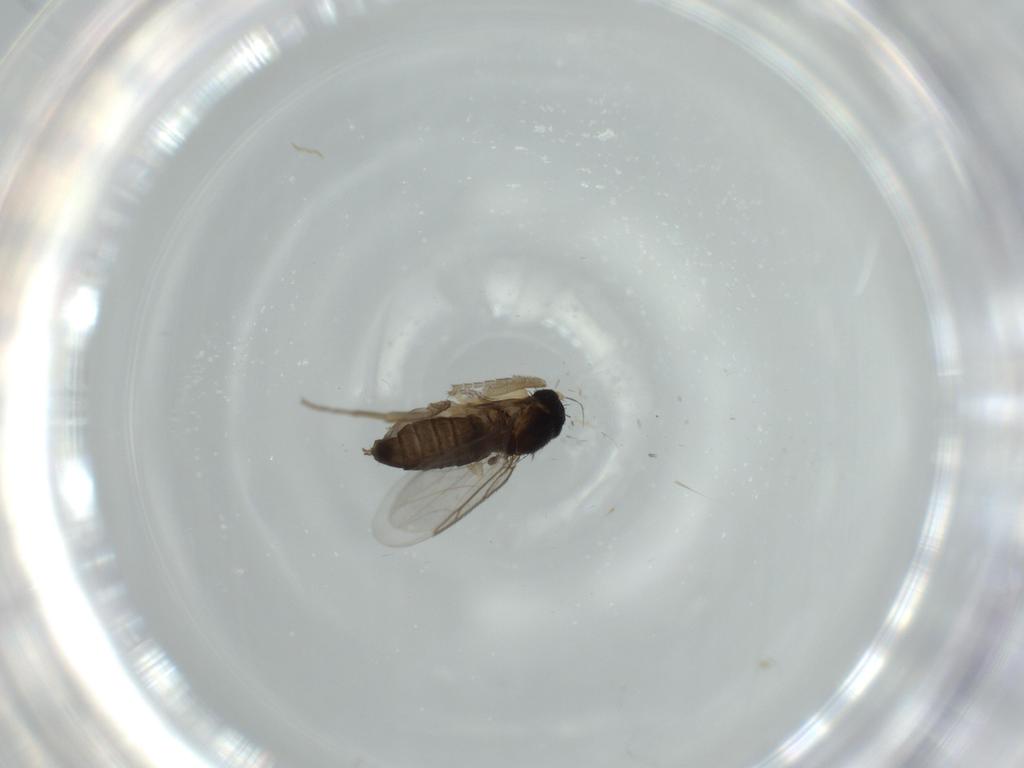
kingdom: Animalia
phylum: Arthropoda
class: Insecta
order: Diptera
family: Phoridae
